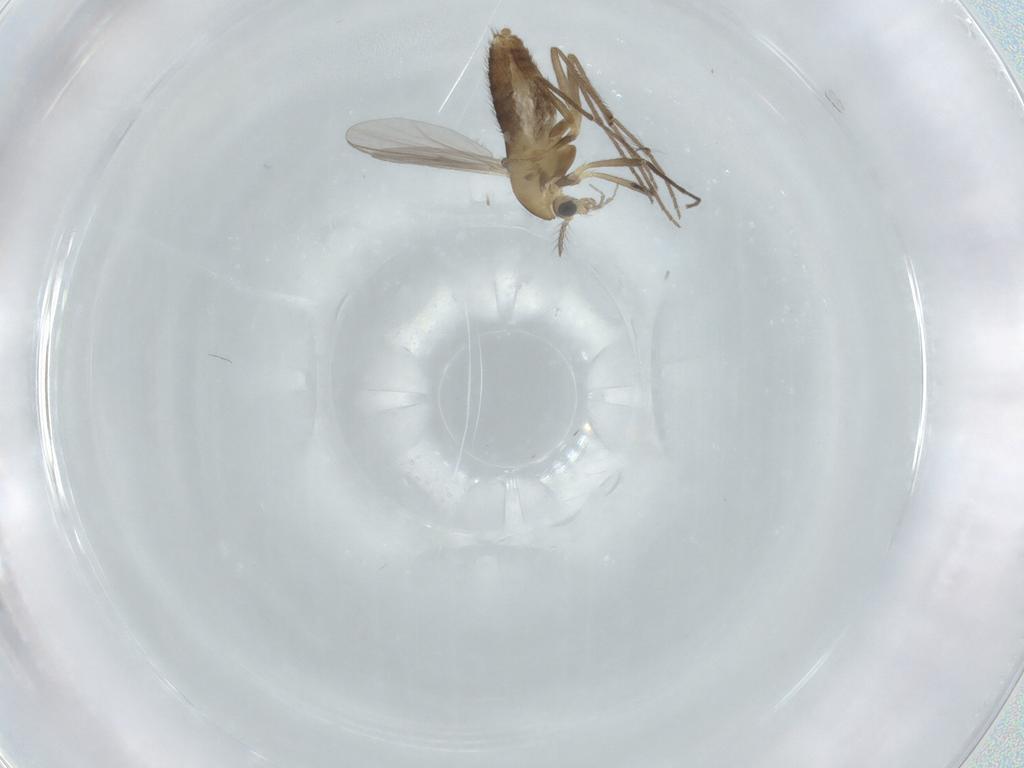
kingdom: Animalia
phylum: Arthropoda
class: Insecta
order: Diptera
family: Chironomidae
